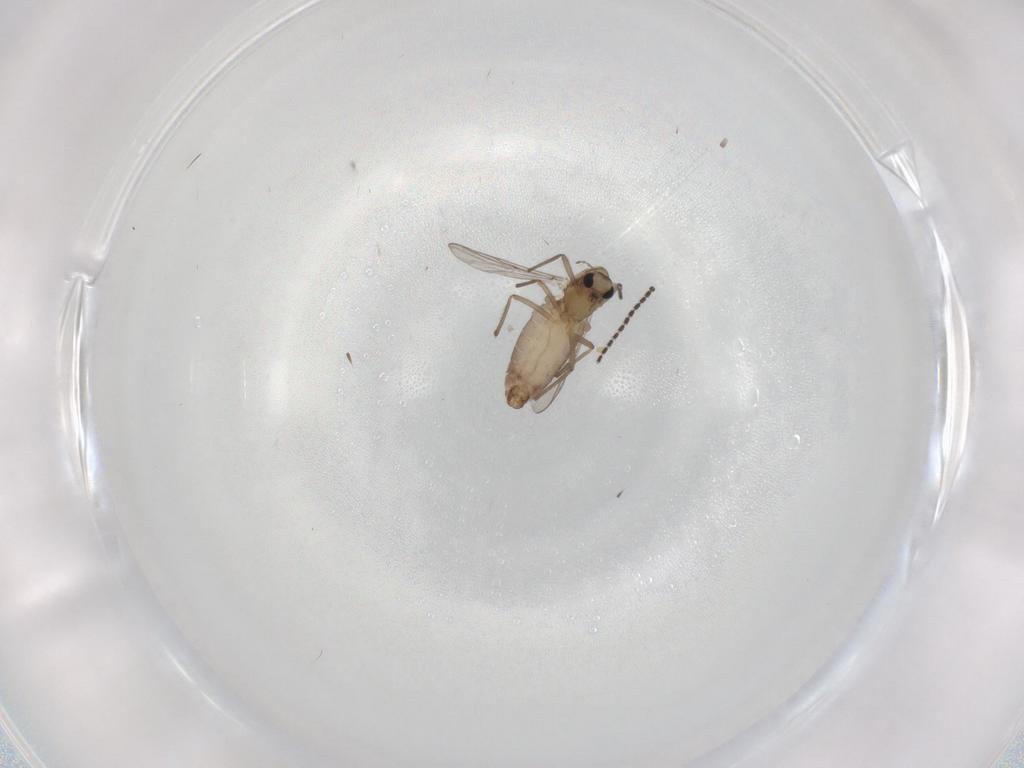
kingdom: Animalia
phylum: Arthropoda
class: Insecta
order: Diptera
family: Chironomidae
